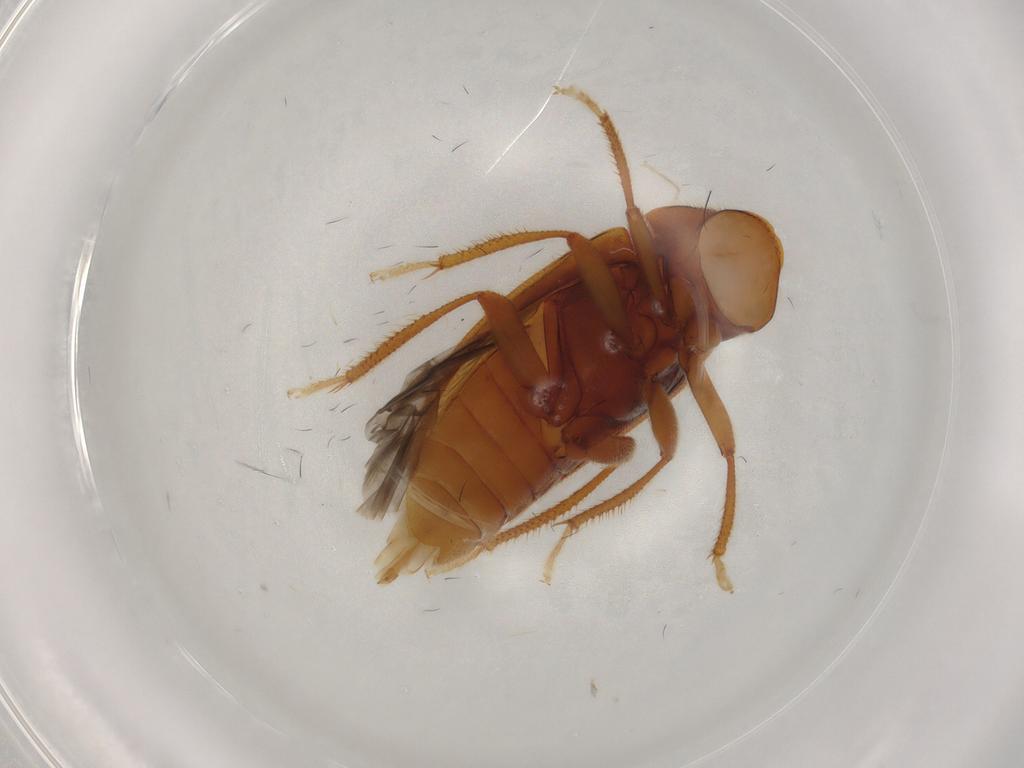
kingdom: Animalia
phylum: Arthropoda
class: Insecta
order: Coleoptera
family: Ptilodactylidae
